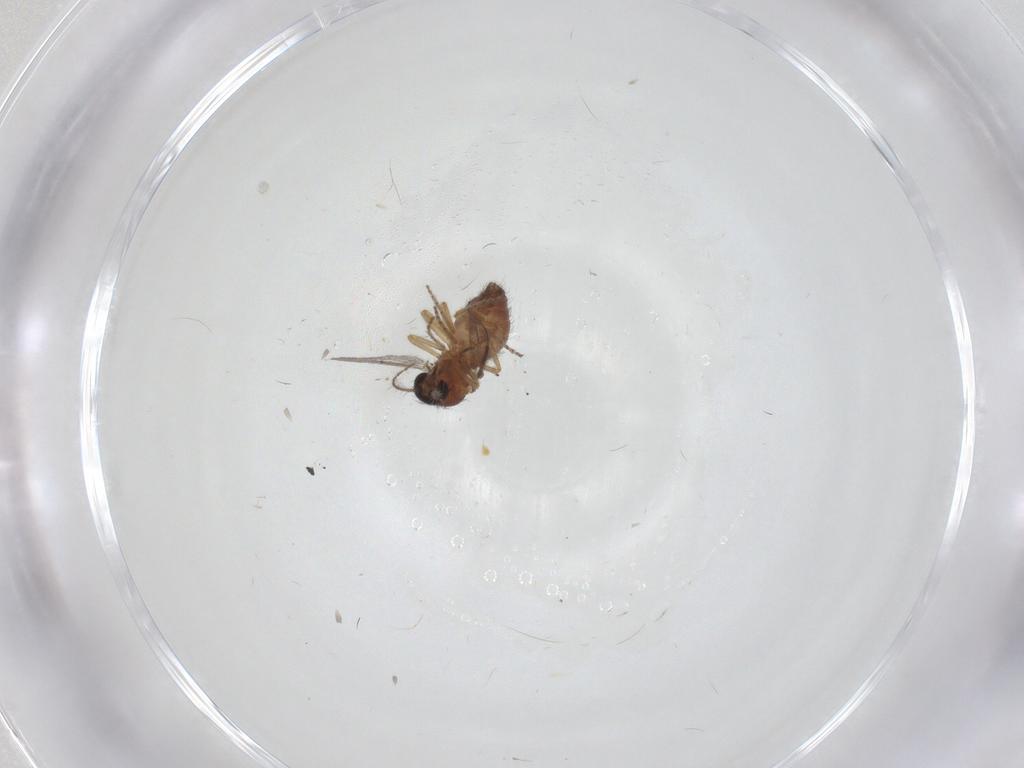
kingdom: Animalia
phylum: Arthropoda
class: Insecta
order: Diptera
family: Ceratopogonidae
